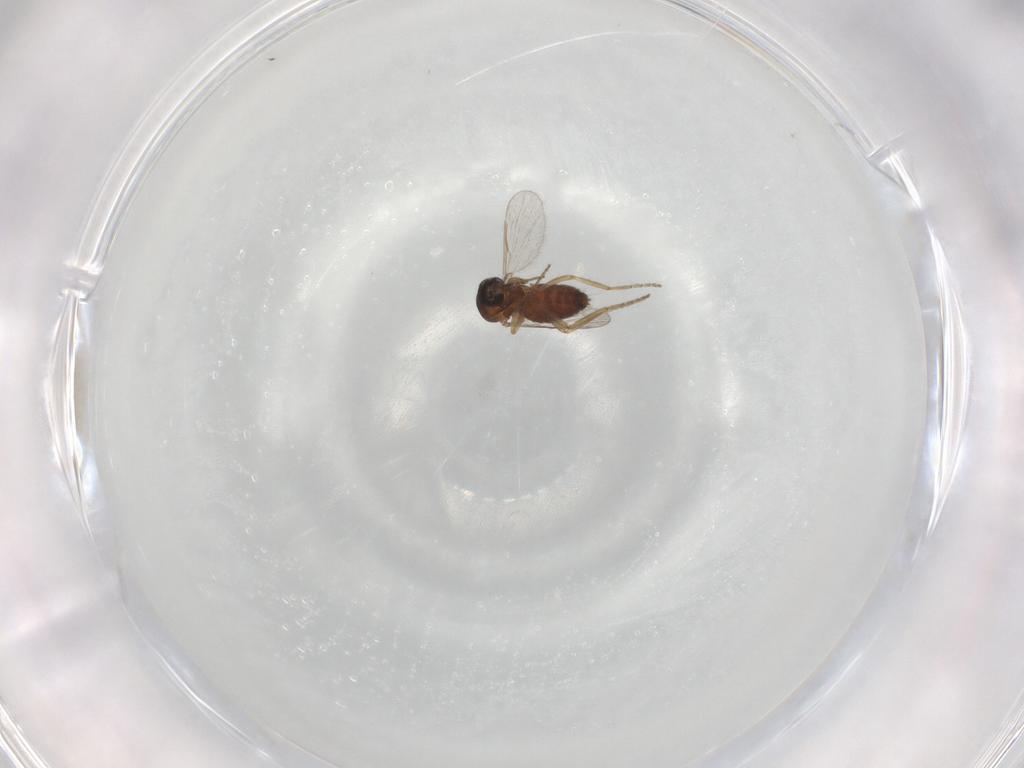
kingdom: Animalia
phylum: Arthropoda
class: Insecta
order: Diptera
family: Ceratopogonidae
